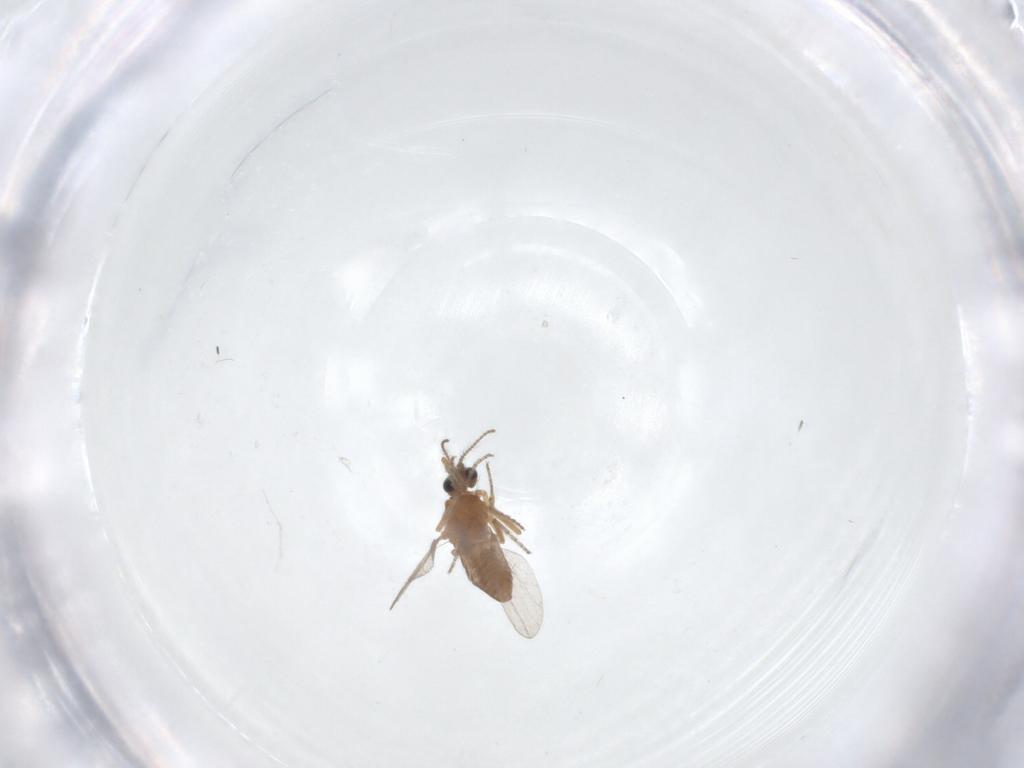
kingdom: Animalia
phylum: Arthropoda
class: Insecta
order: Diptera
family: Ceratopogonidae
